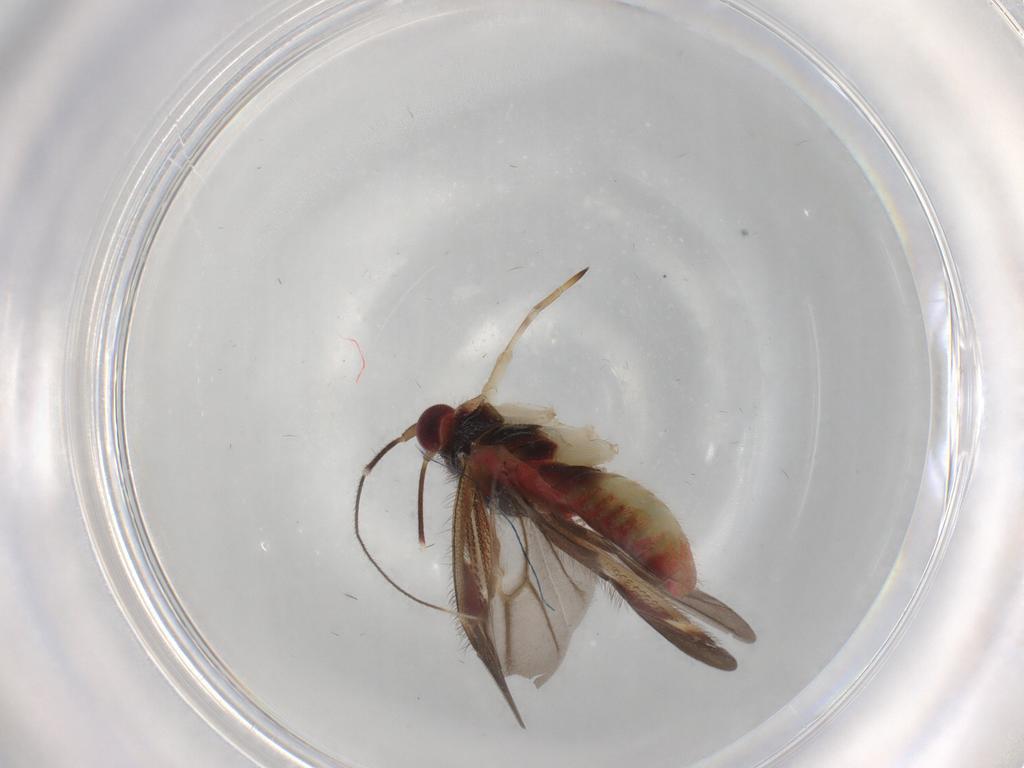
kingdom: Animalia
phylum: Arthropoda
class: Insecta
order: Hemiptera
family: Miridae
